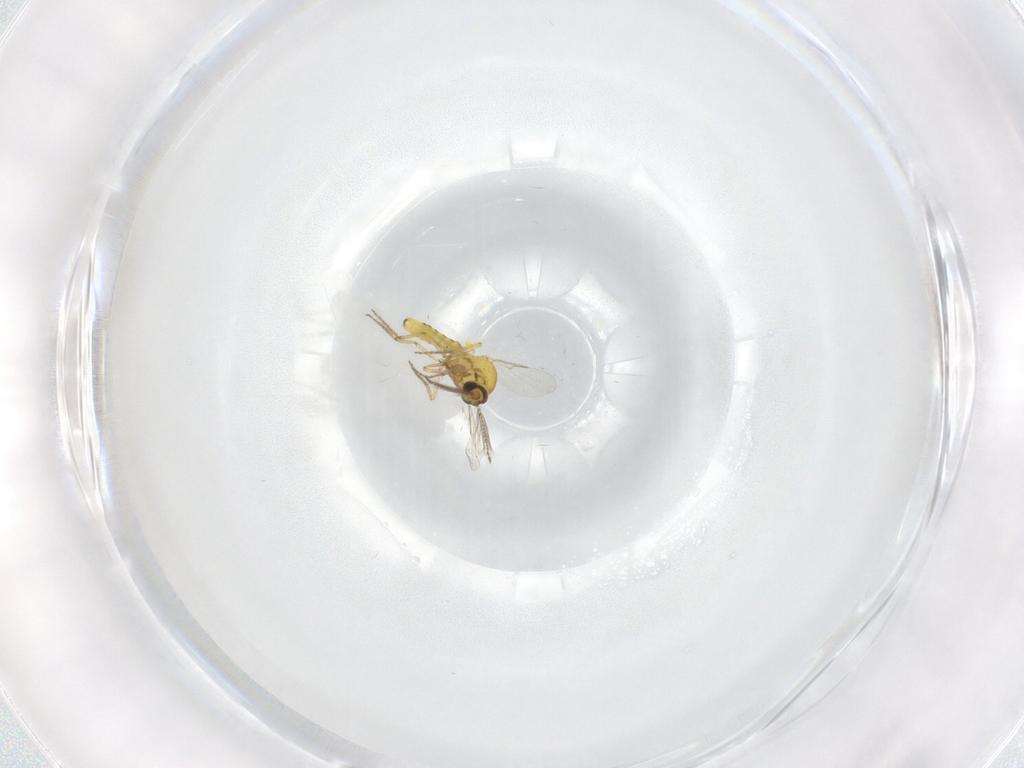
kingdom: Animalia
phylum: Arthropoda
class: Insecta
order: Diptera
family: Ceratopogonidae
